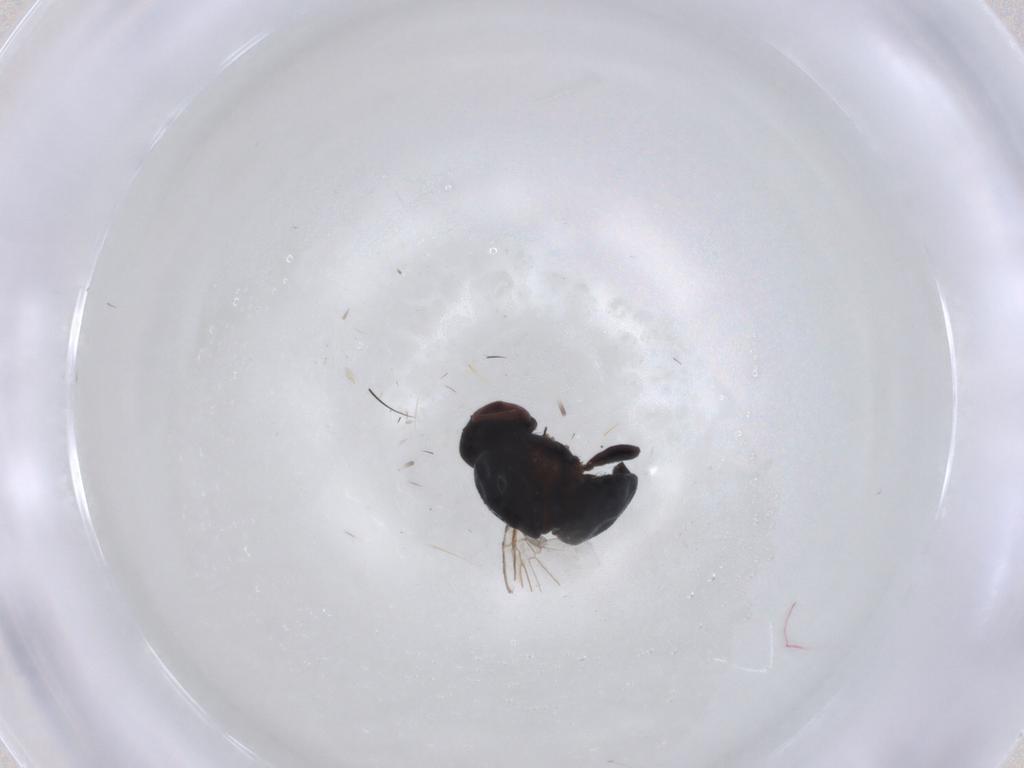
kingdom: Animalia
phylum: Arthropoda
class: Insecta
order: Diptera
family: Agromyzidae
